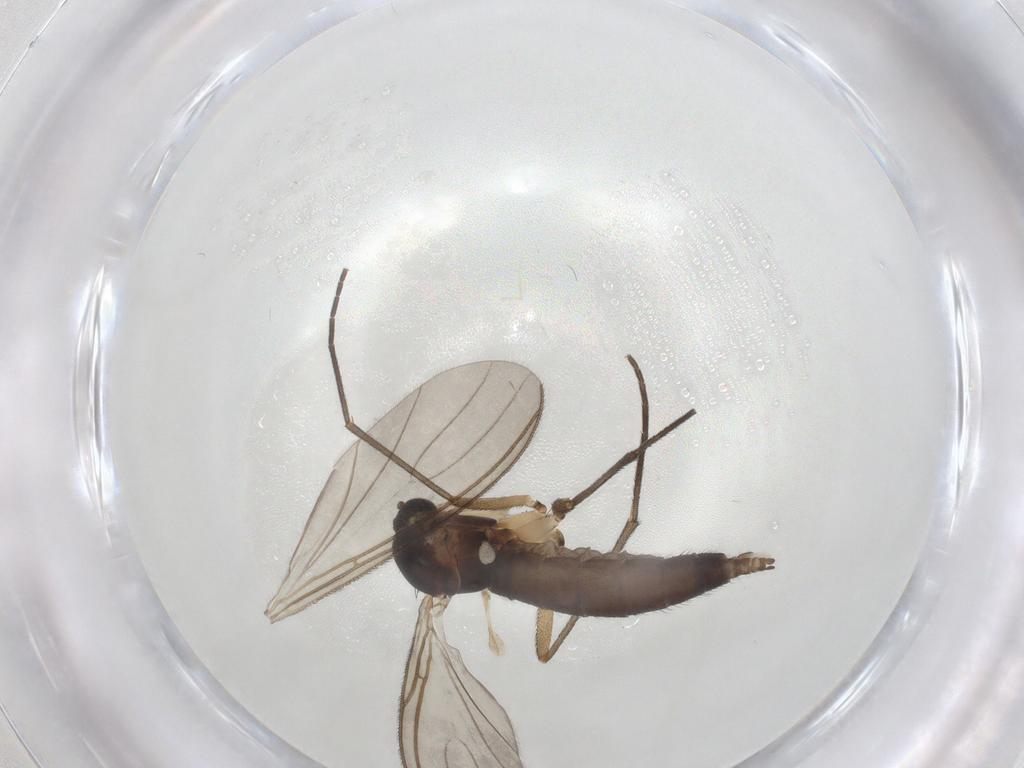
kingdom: Animalia
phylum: Arthropoda
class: Insecta
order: Diptera
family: Sciaridae
